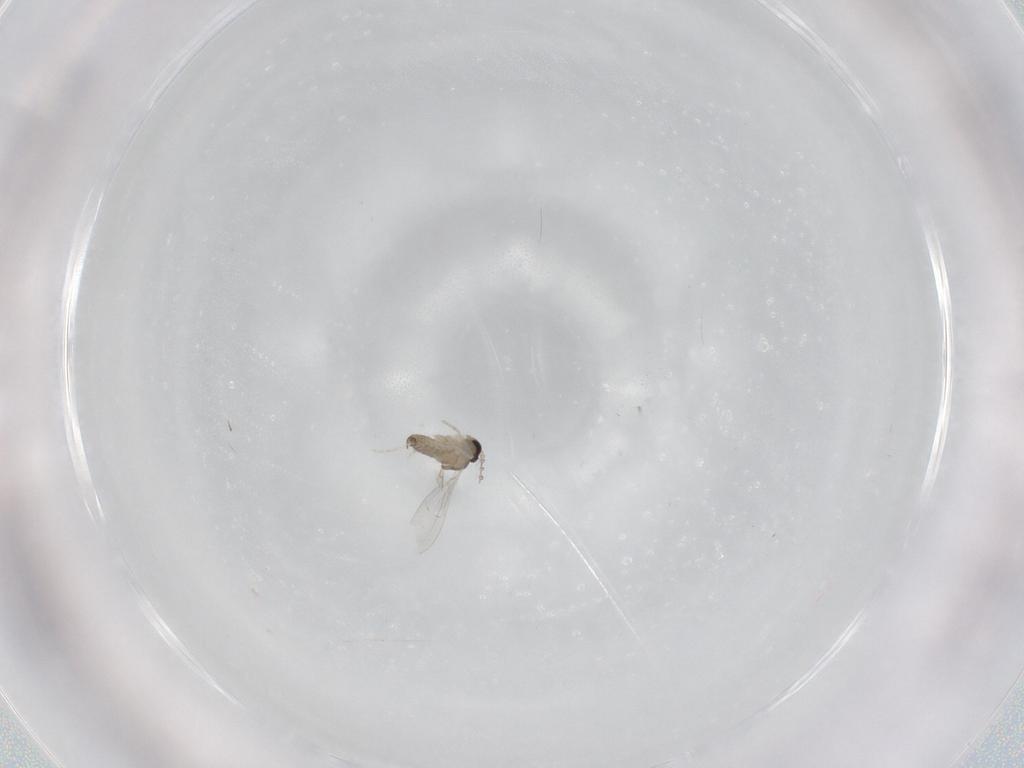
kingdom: Animalia
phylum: Arthropoda
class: Insecta
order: Diptera
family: Cecidomyiidae
